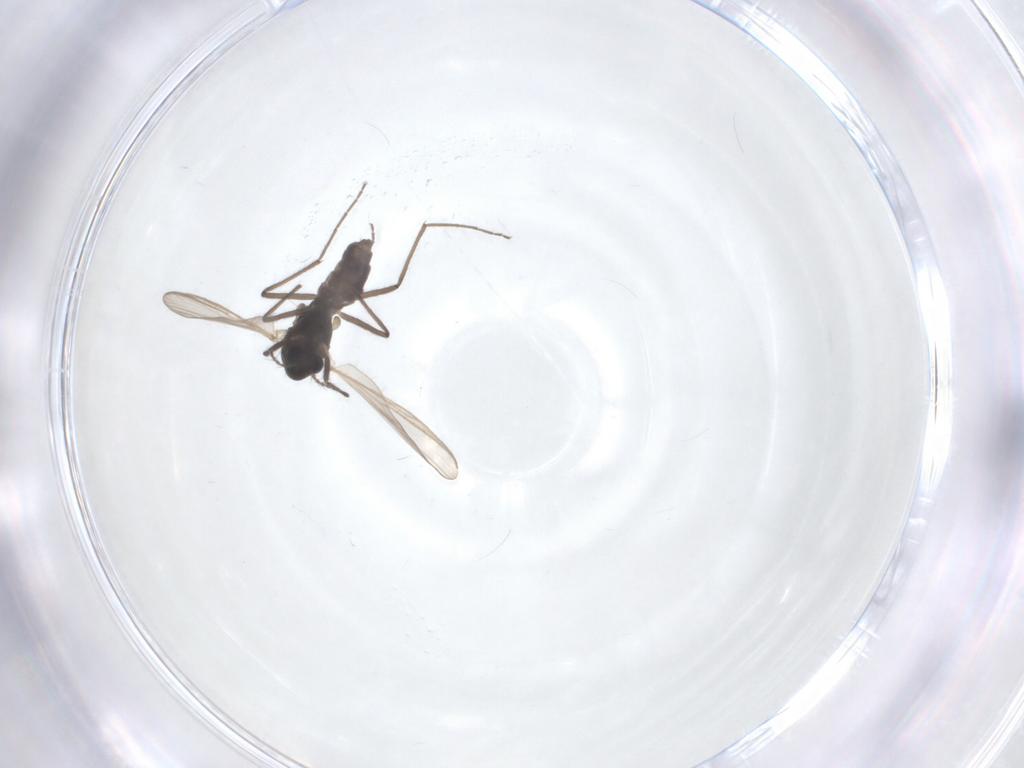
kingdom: Animalia
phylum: Arthropoda
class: Insecta
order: Diptera
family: Chironomidae
